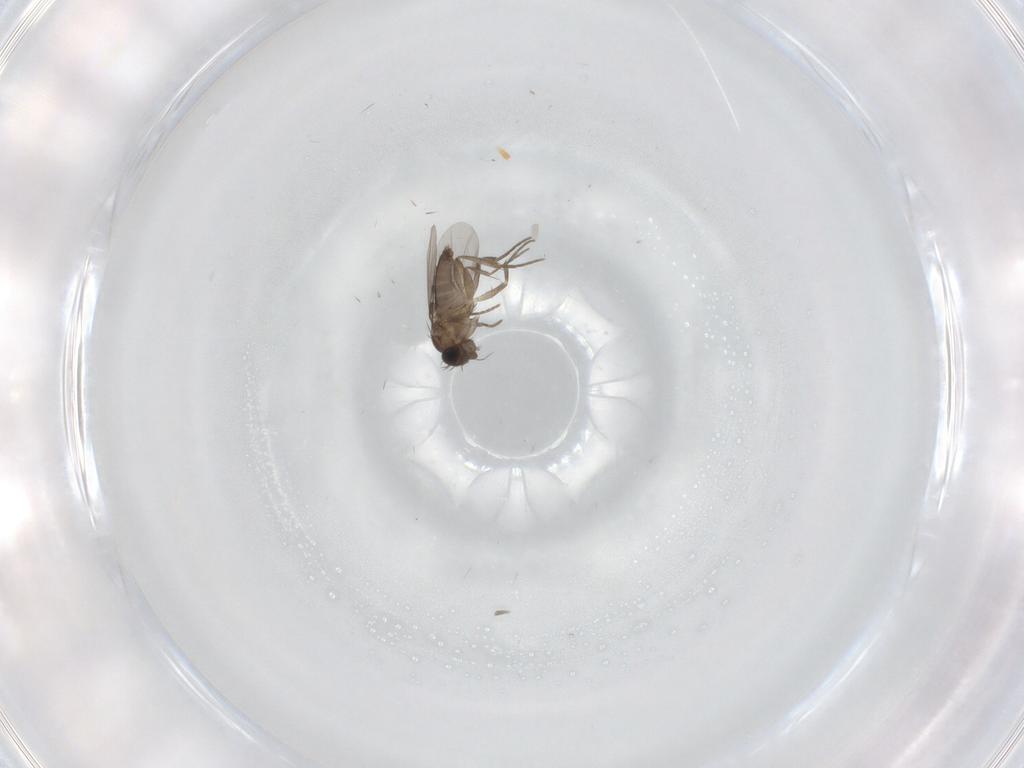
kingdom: Animalia
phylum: Arthropoda
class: Insecta
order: Diptera
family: Phoridae
